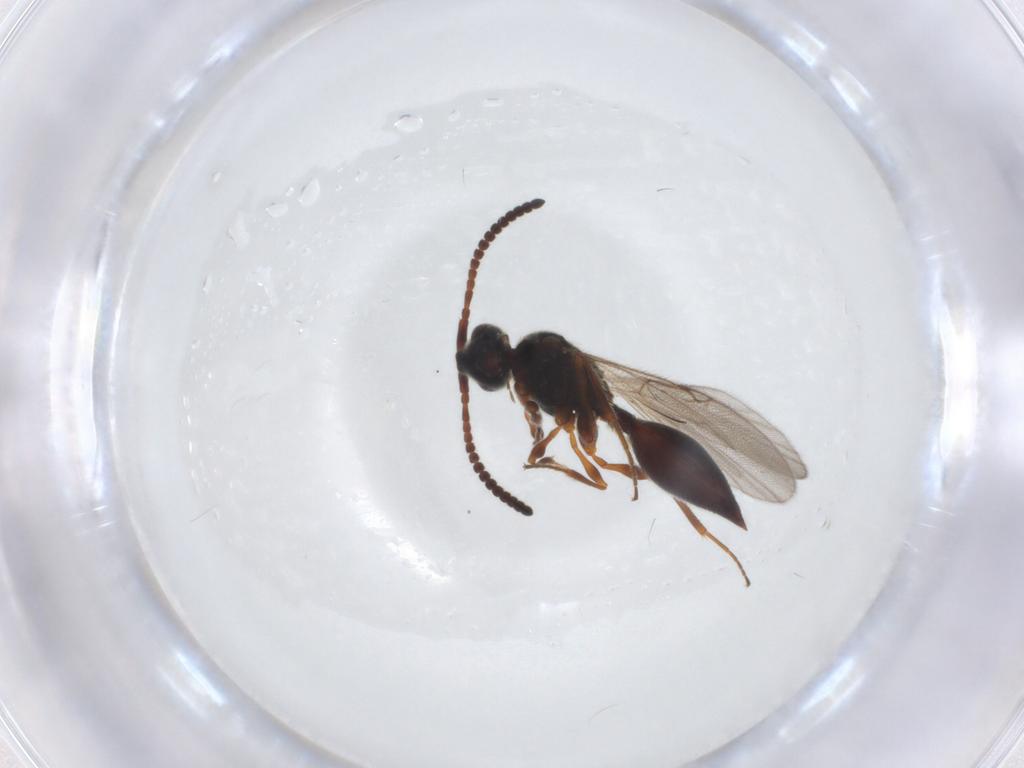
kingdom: Animalia
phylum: Arthropoda
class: Insecta
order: Hymenoptera
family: Diapriidae
